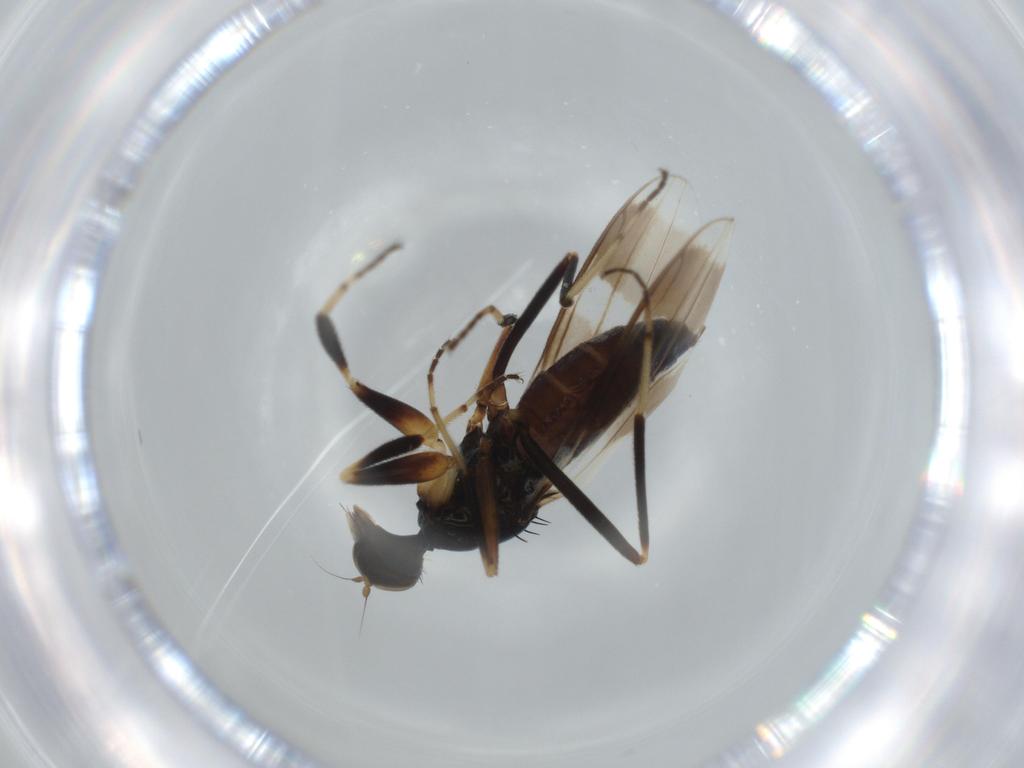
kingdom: Animalia
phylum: Arthropoda
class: Insecta
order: Diptera
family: Hybotidae
